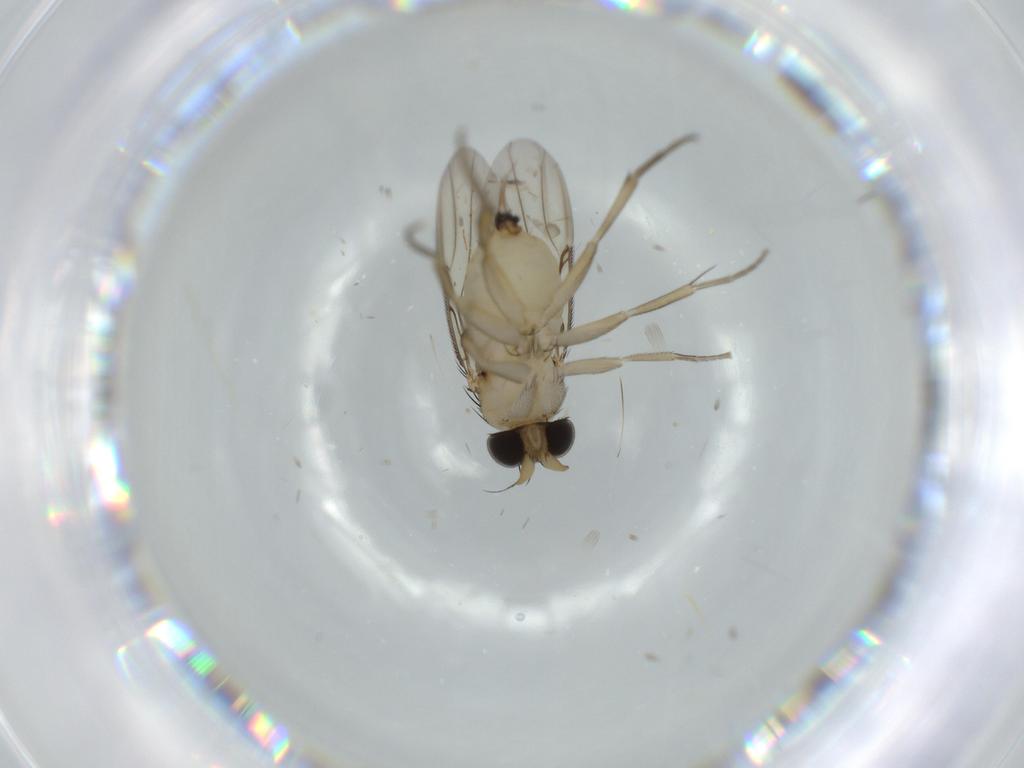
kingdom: Animalia
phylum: Arthropoda
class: Insecta
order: Diptera
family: Phoridae
